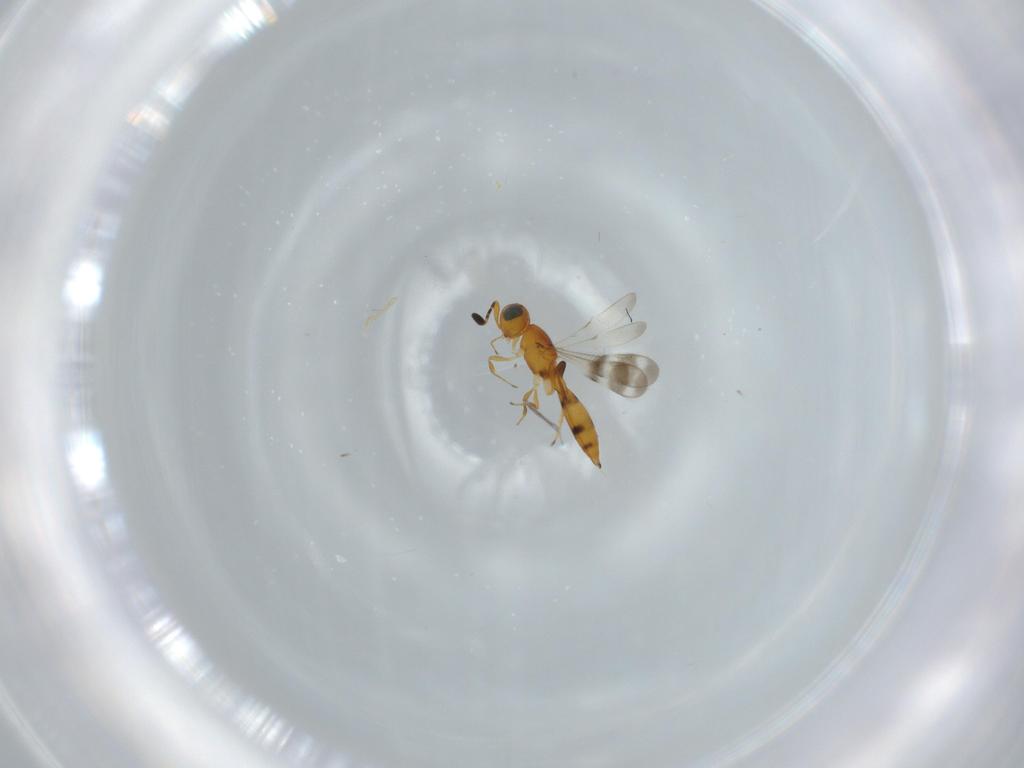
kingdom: Animalia
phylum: Arthropoda
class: Insecta
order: Hymenoptera
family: Scelionidae
